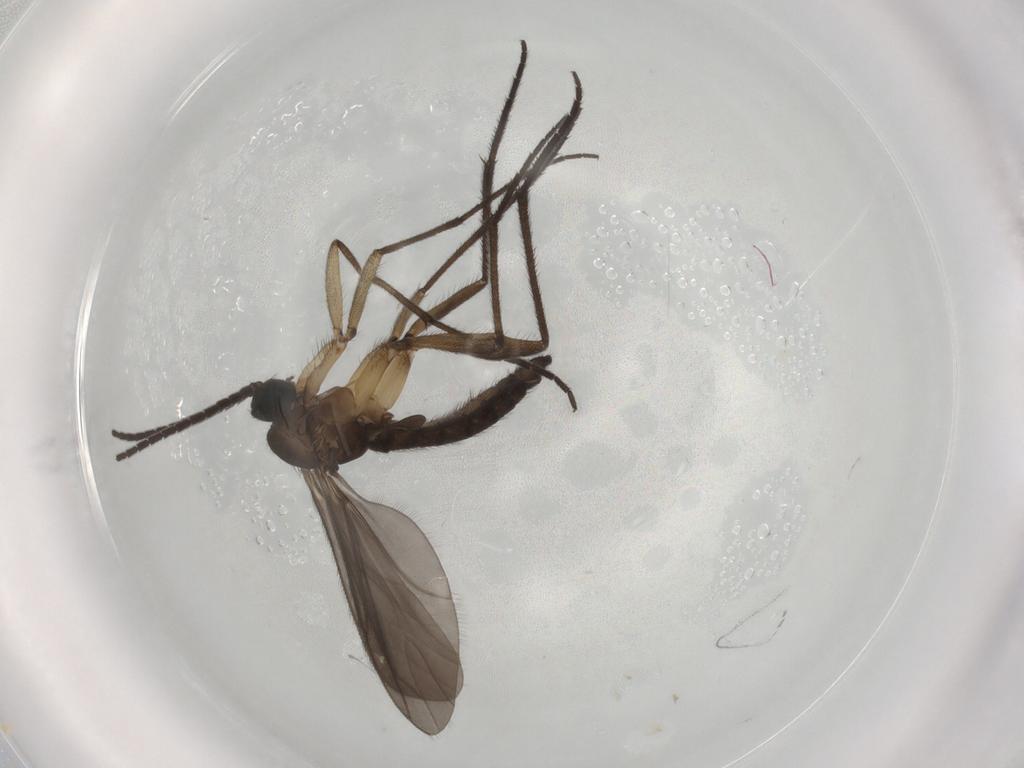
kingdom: Animalia
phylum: Arthropoda
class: Insecta
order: Diptera
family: Sciaridae
